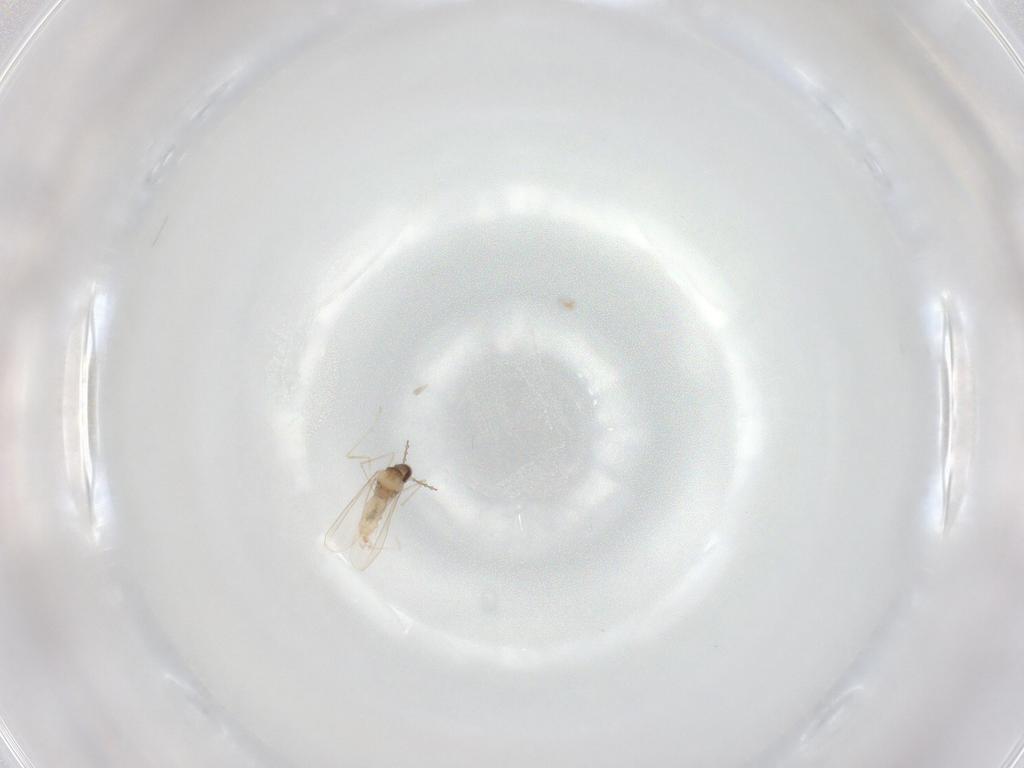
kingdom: Animalia
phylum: Arthropoda
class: Insecta
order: Diptera
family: Cecidomyiidae
